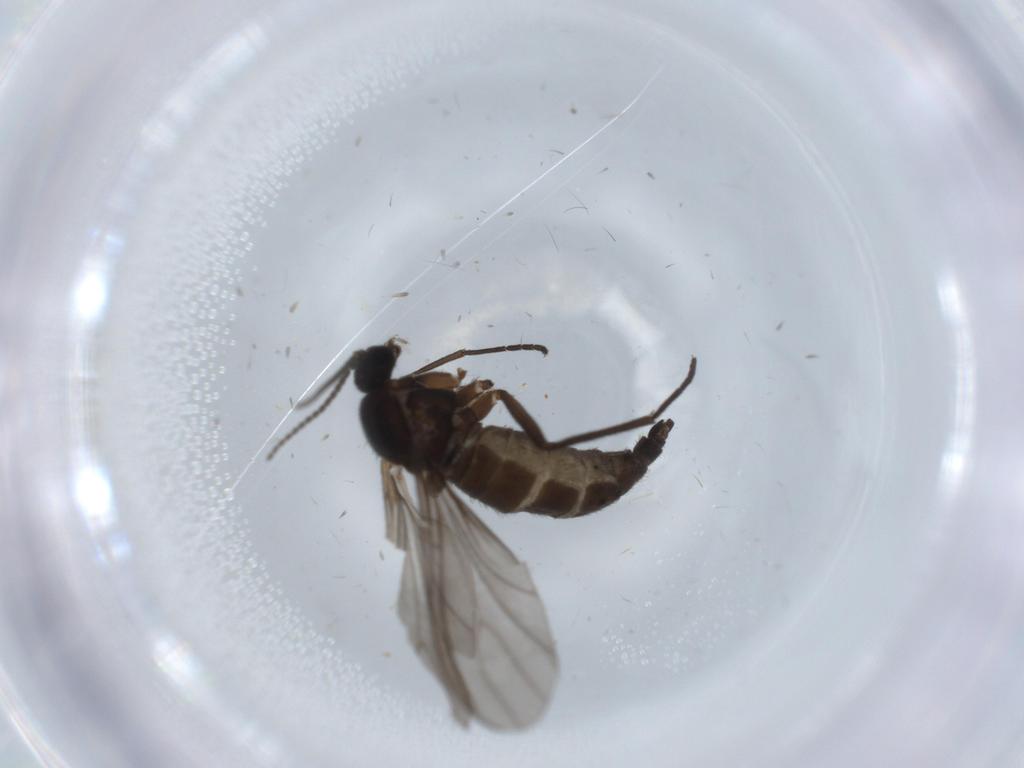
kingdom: Animalia
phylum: Arthropoda
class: Insecta
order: Diptera
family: Sciaridae
